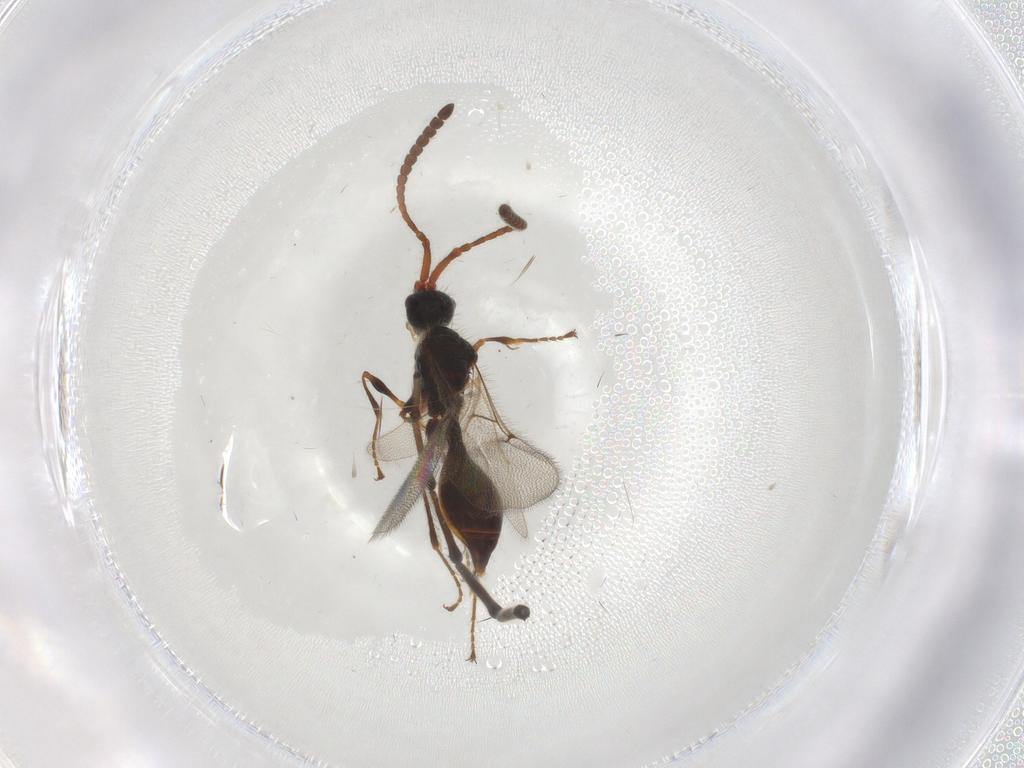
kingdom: Animalia
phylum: Arthropoda
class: Insecta
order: Hymenoptera
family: Diapriidae
